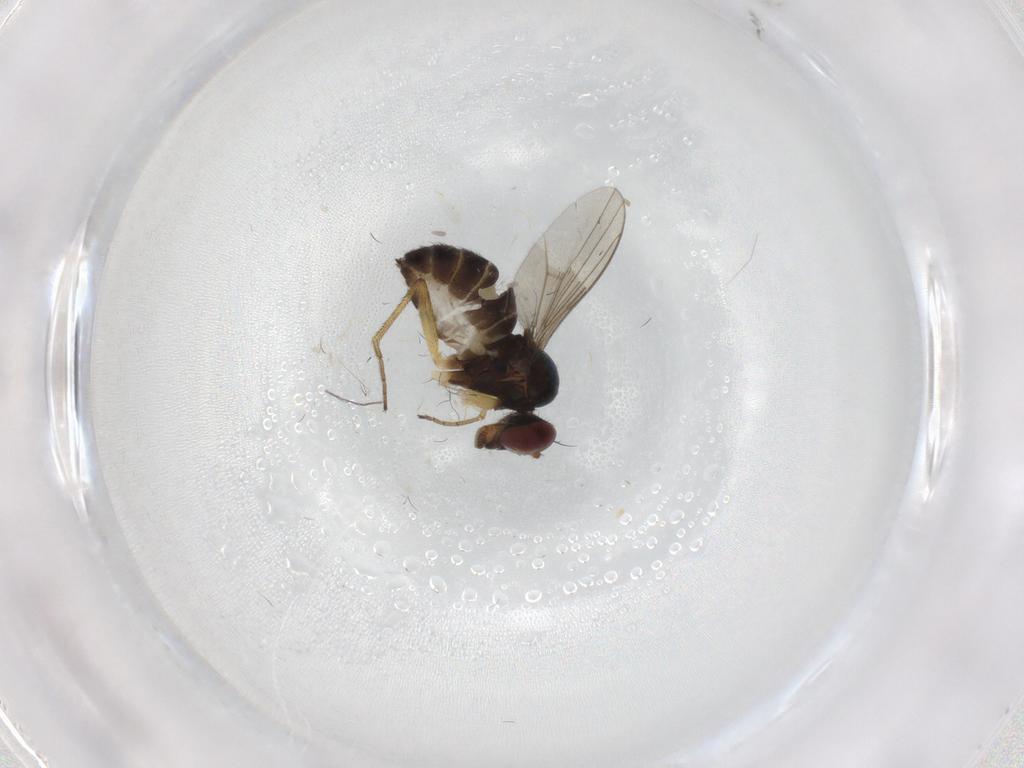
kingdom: Animalia
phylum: Arthropoda
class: Insecta
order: Diptera
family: Dolichopodidae
